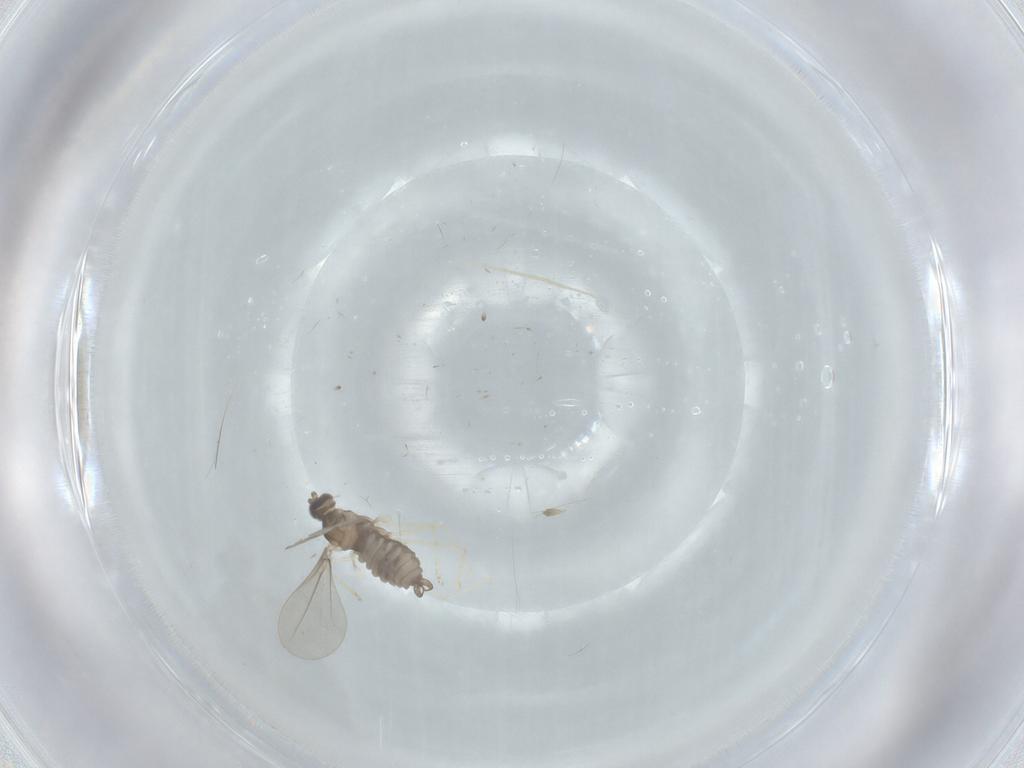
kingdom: Animalia
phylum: Arthropoda
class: Insecta
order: Diptera
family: Cecidomyiidae
